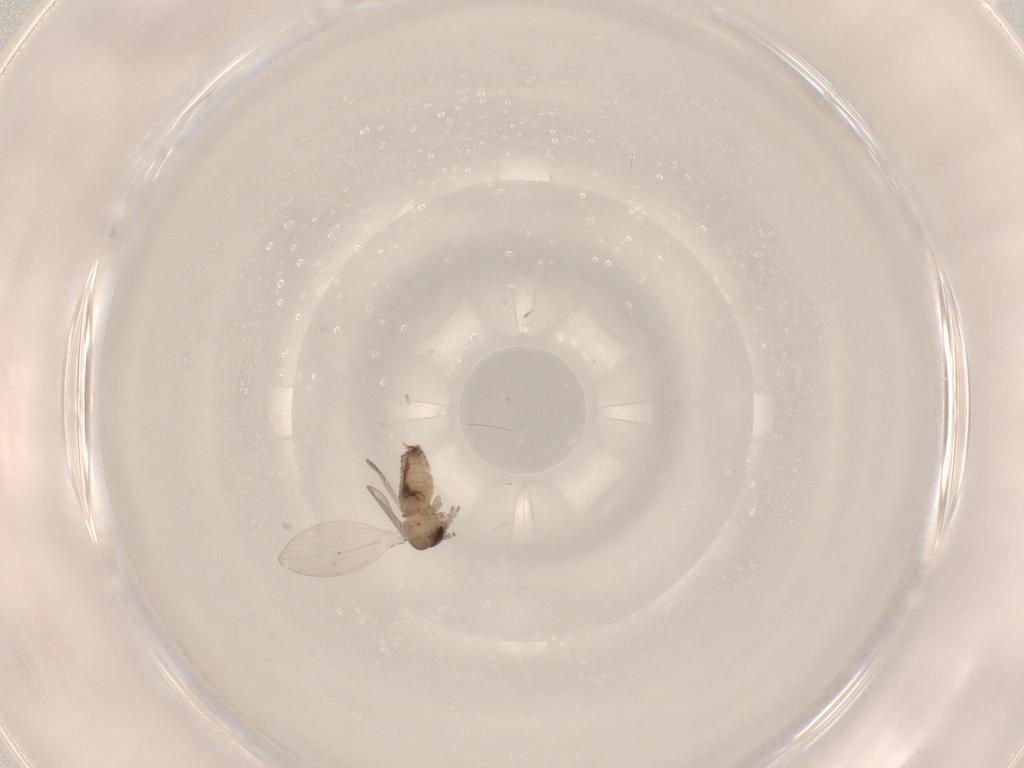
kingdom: Animalia
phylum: Arthropoda
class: Insecta
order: Diptera
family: Psychodidae
